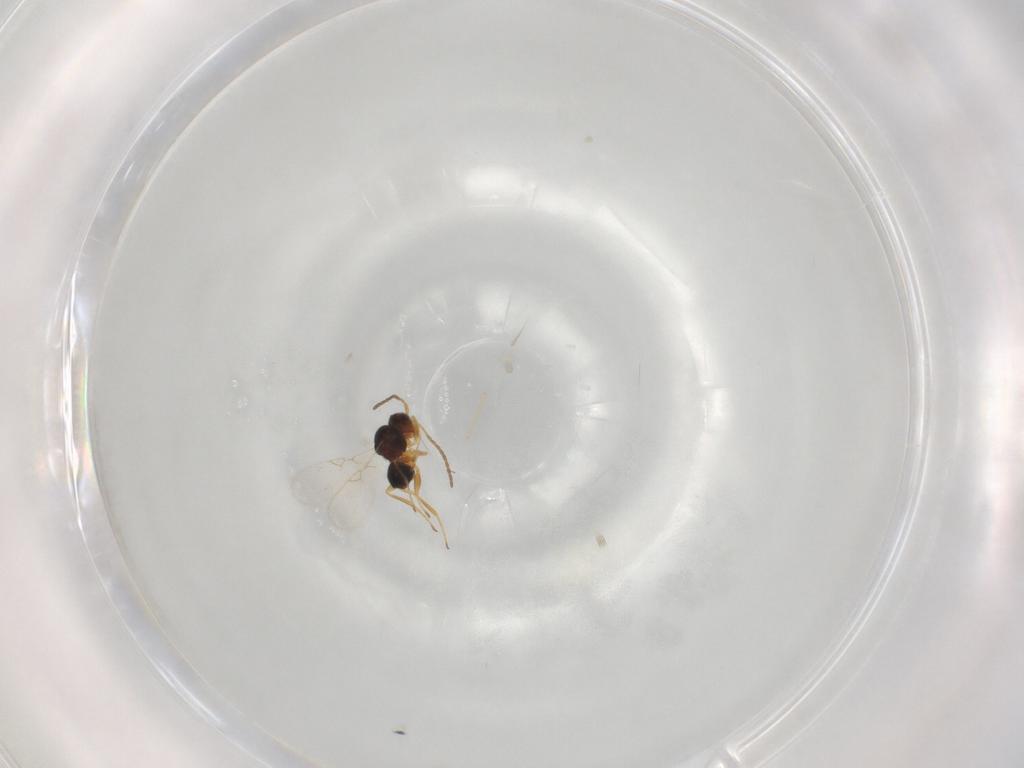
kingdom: Animalia
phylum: Arthropoda
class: Insecta
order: Hymenoptera
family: Figitidae
